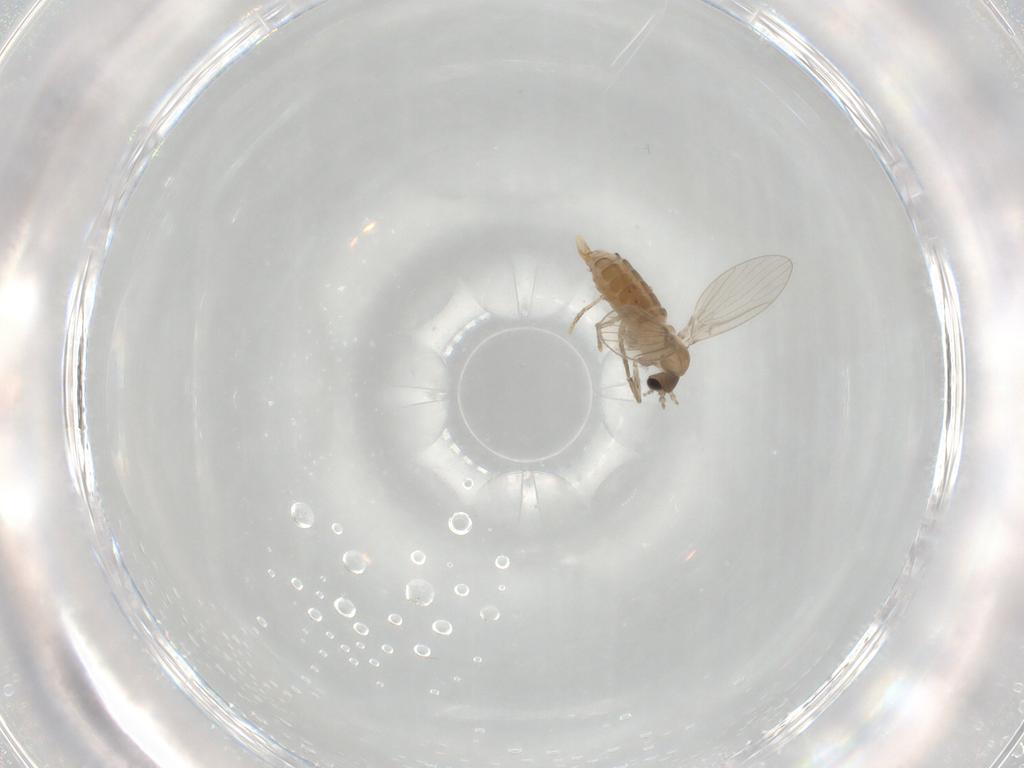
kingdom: Animalia
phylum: Arthropoda
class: Insecta
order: Diptera
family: Psychodidae
